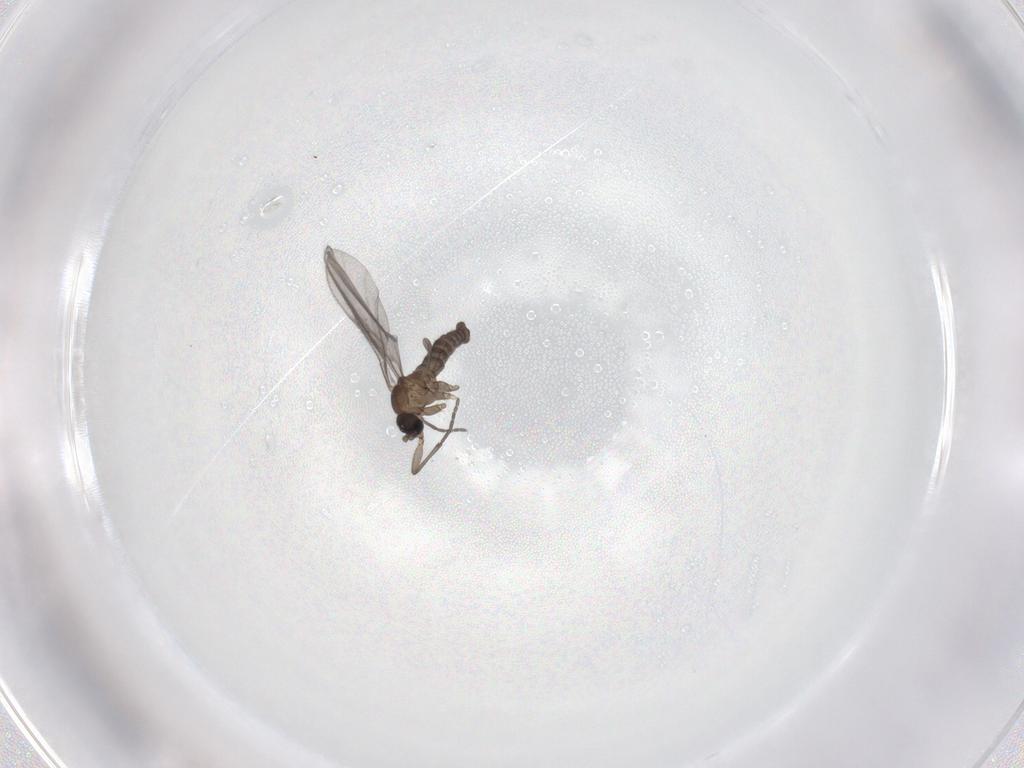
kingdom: Animalia
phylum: Arthropoda
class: Insecta
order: Diptera
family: Sciaridae
